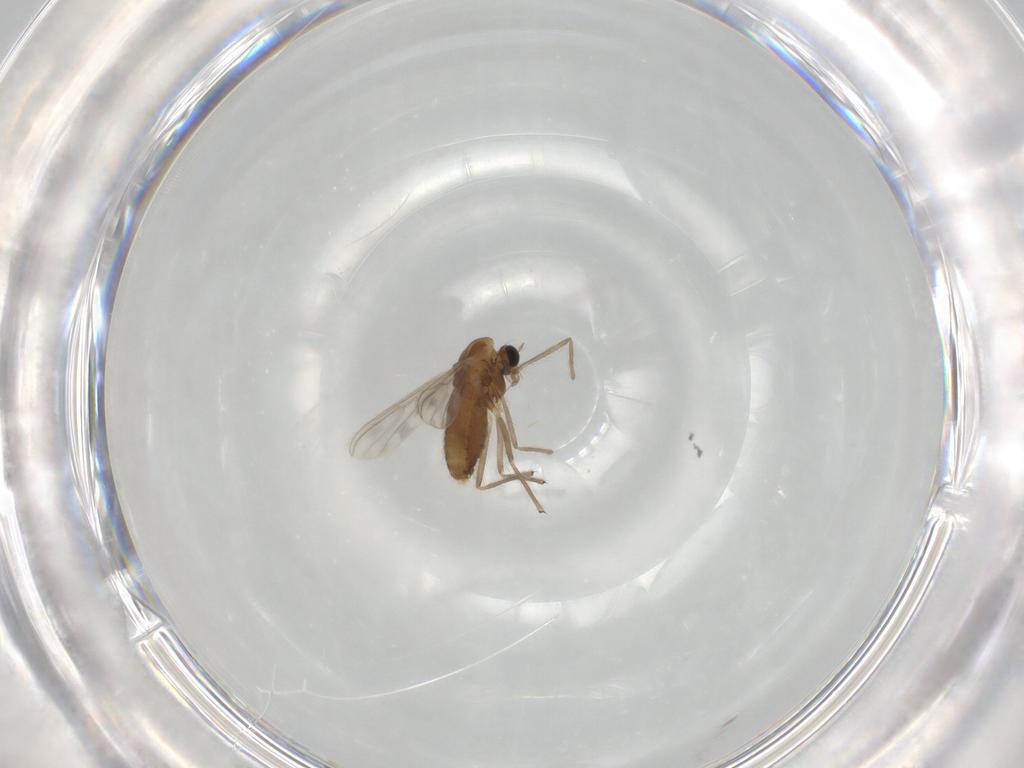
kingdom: Animalia
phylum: Arthropoda
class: Insecta
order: Diptera
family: Chironomidae
